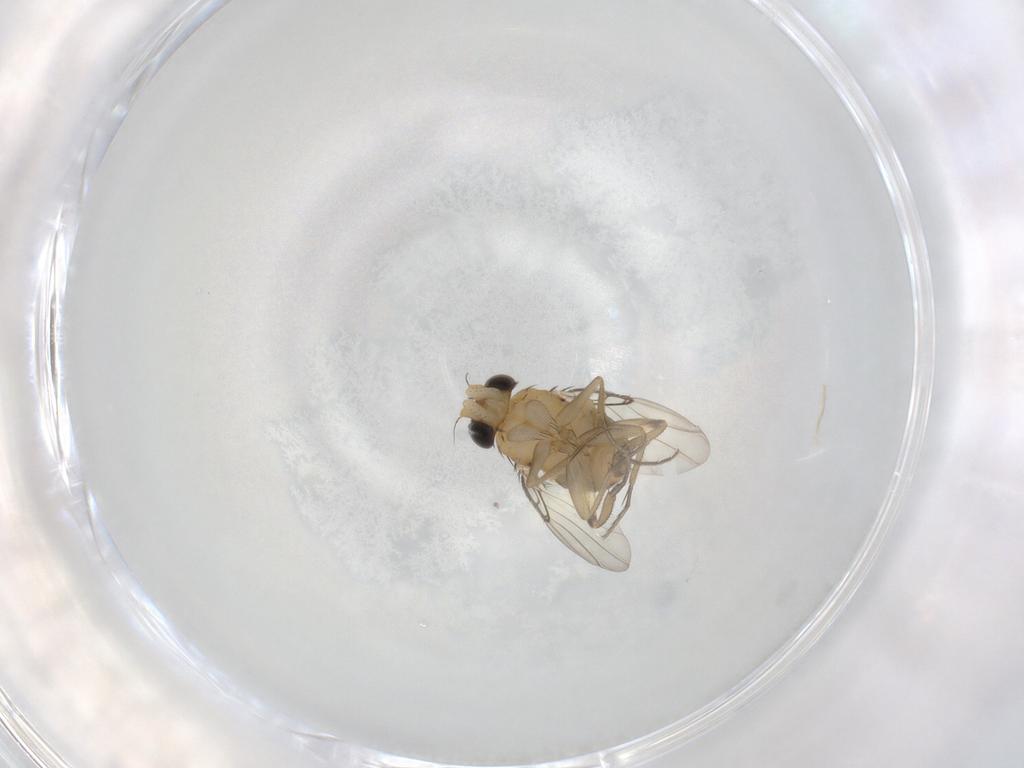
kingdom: Animalia
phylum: Arthropoda
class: Insecta
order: Diptera
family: Phoridae
